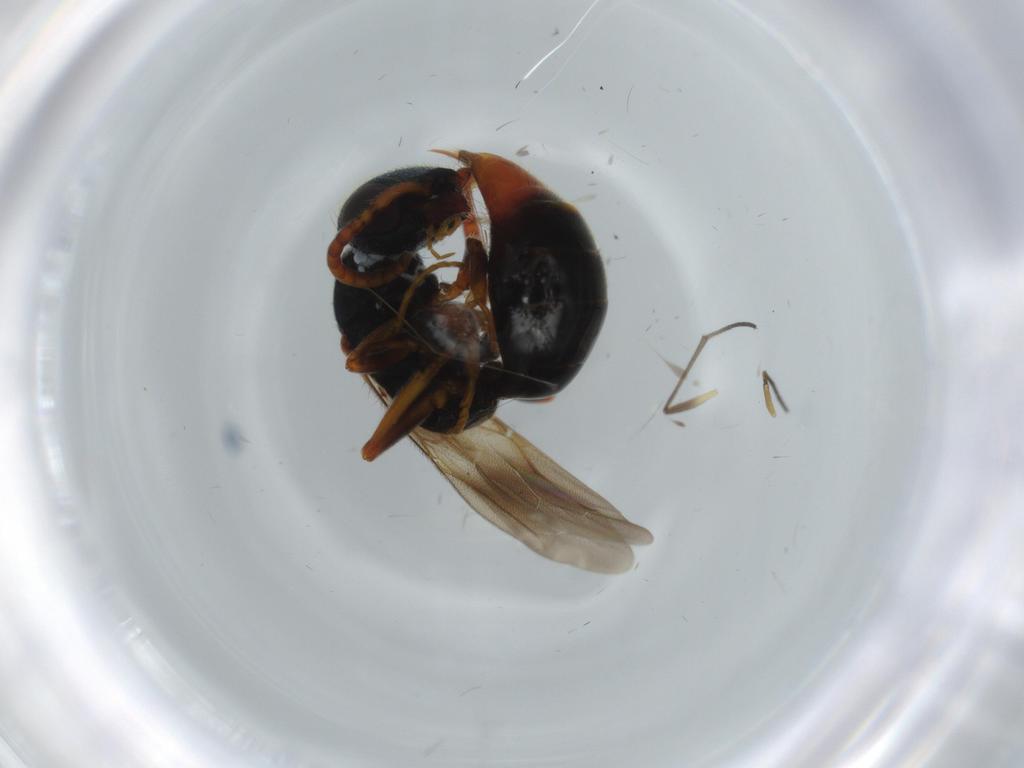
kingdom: Animalia
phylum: Arthropoda
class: Insecta
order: Hymenoptera
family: Bethylidae
